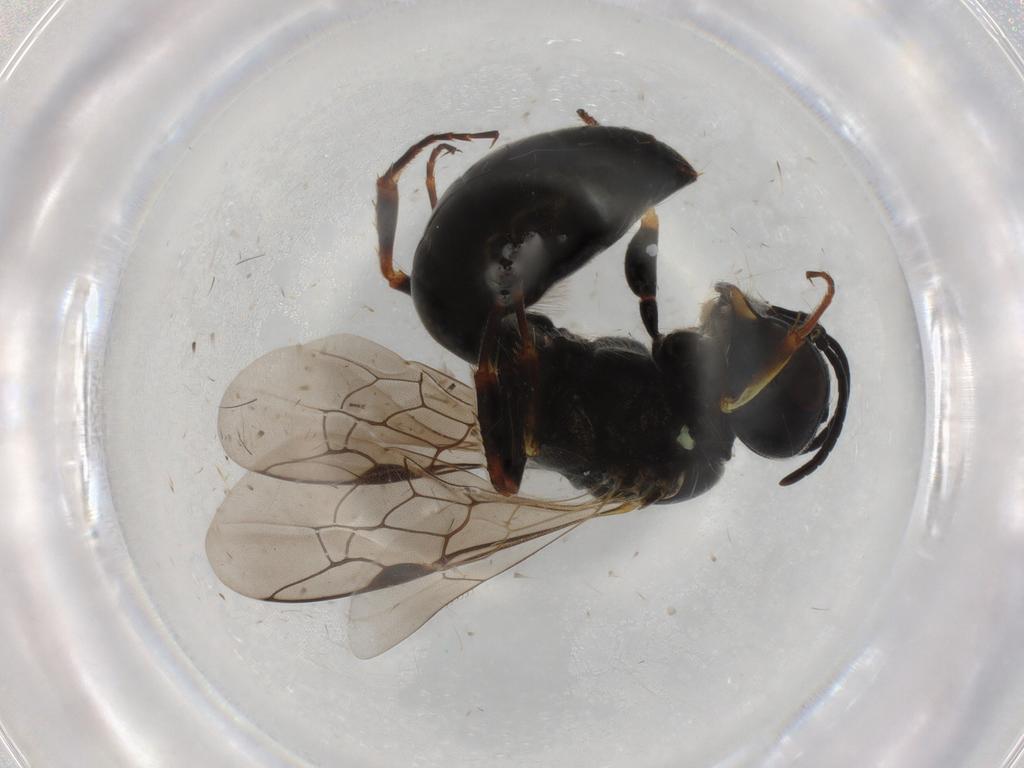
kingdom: Animalia
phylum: Arthropoda
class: Insecta
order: Hymenoptera
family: Crabronidae
